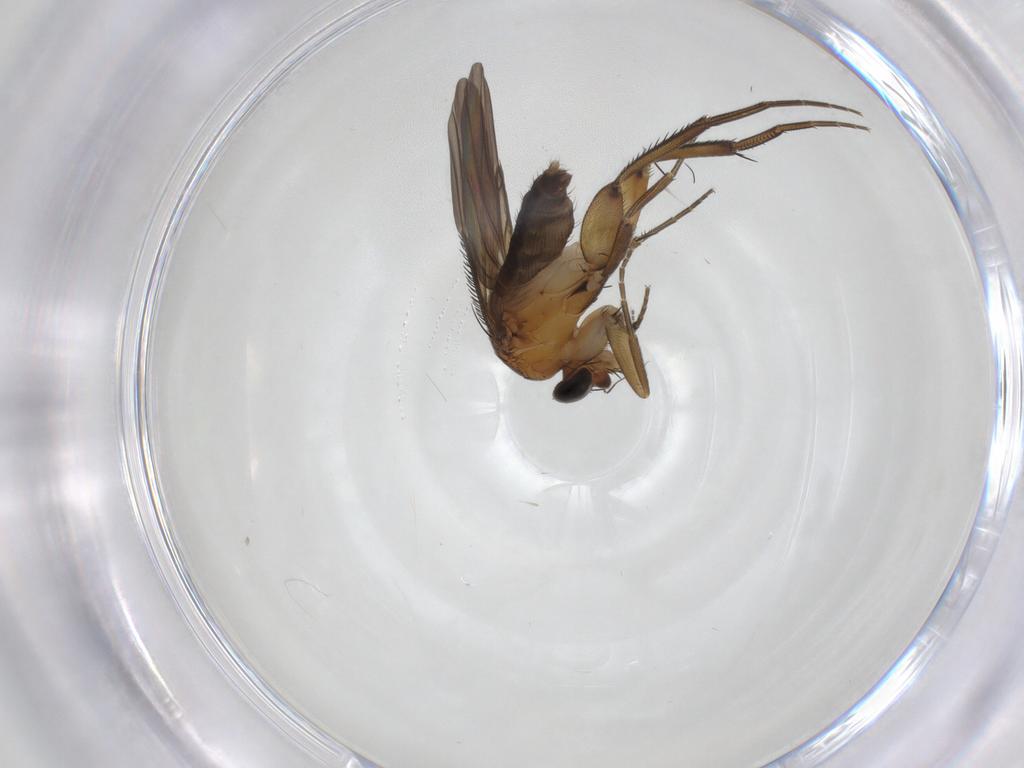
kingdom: Animalia
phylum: Arthropoda
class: Insecta
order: Diptera
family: Phoridae
